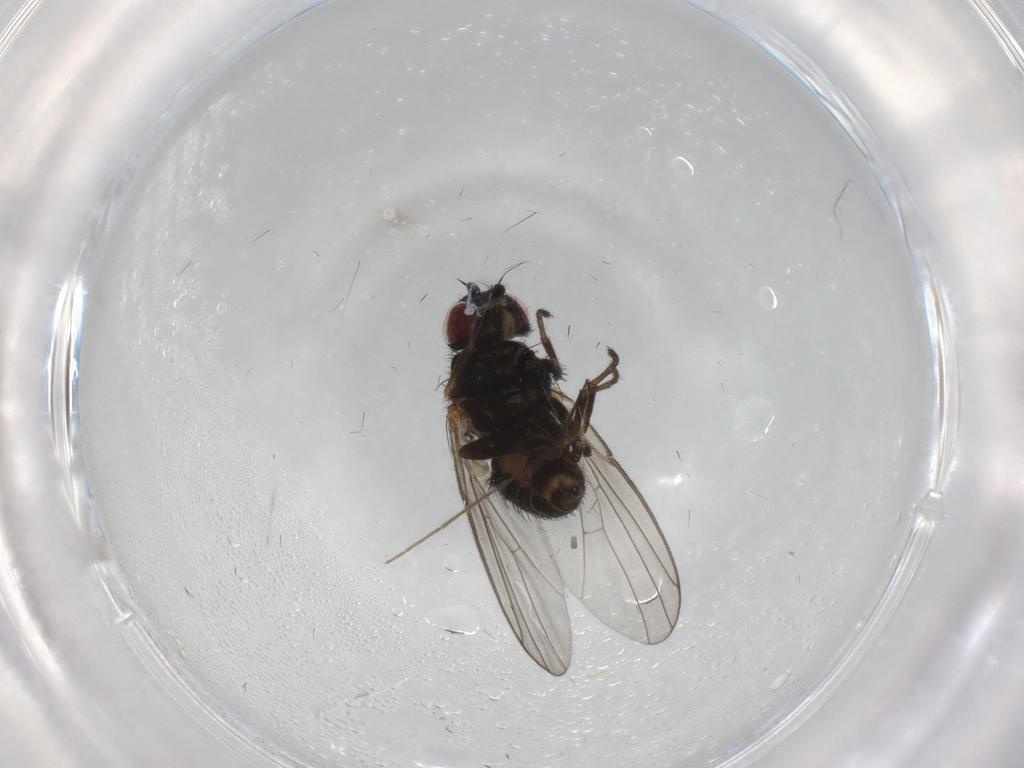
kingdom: Animalia
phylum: Arthropoda
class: Insecta
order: Diptera
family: Agromyzidae
